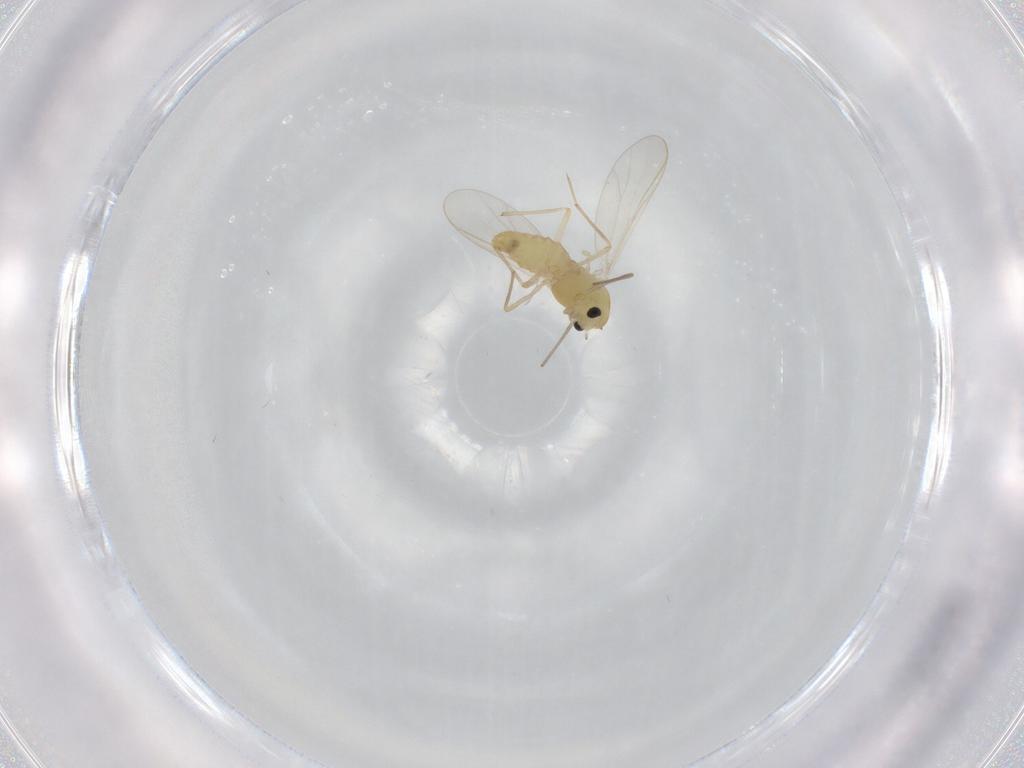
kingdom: Animalia
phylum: Arthropoda
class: Insecta
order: Diptera
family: Chironomidae
